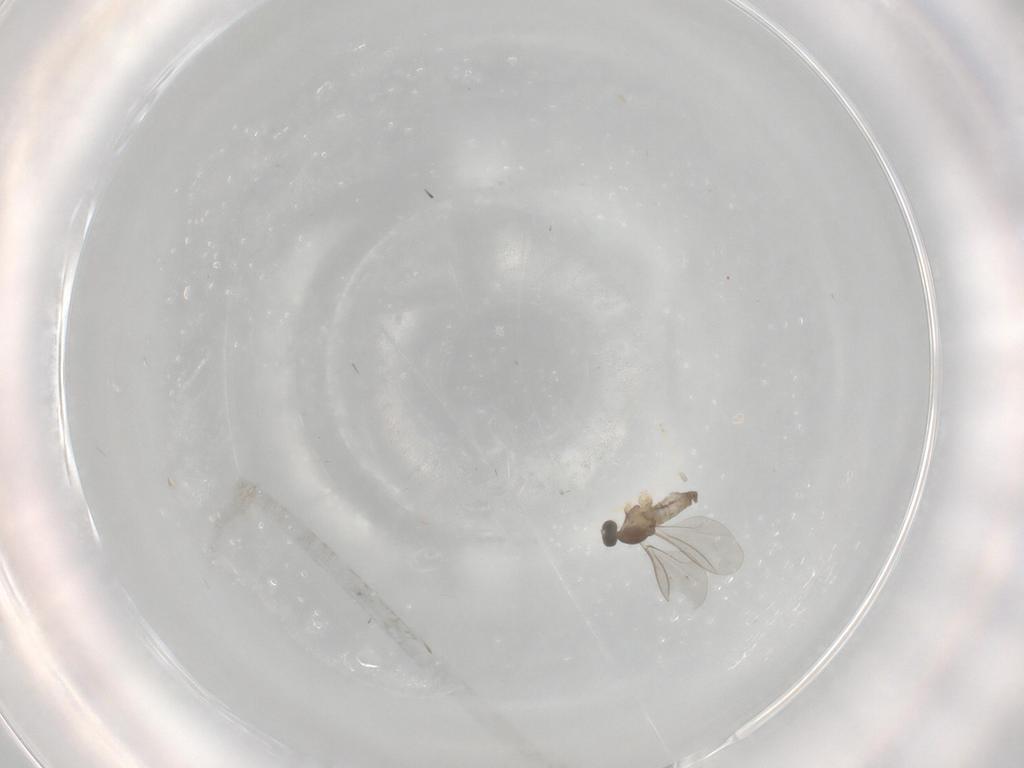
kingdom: Animalia
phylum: Arthropoda
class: Insecta
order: Diptera
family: Cecidomyiidae
